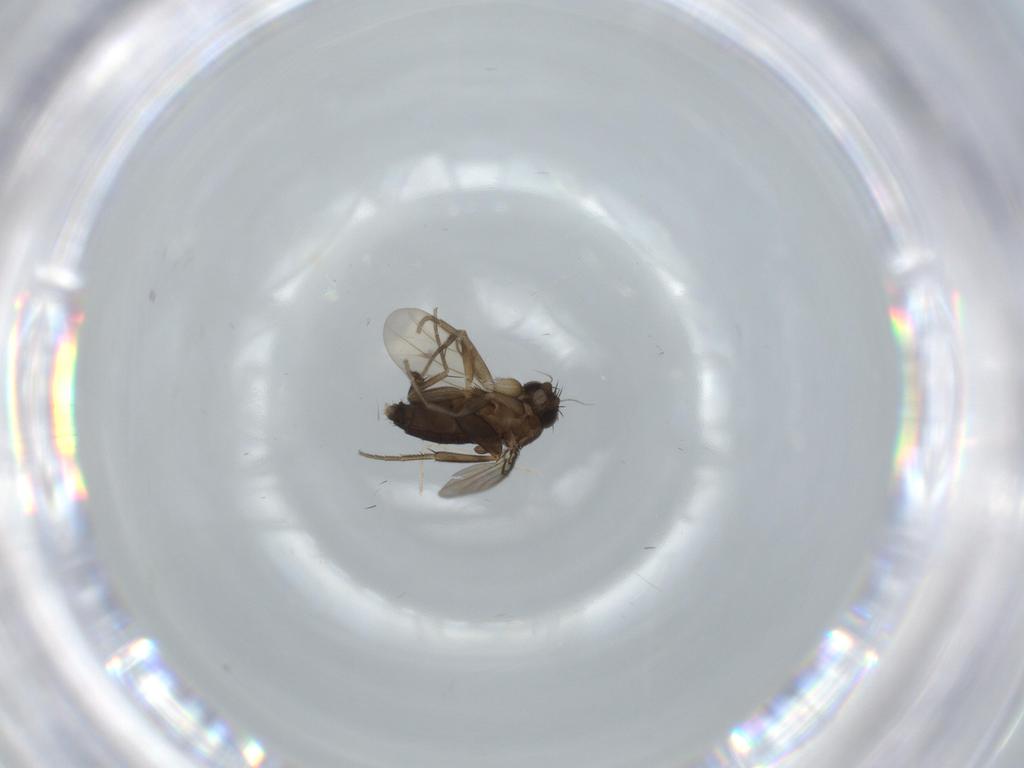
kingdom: Animalia
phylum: Arthropoda
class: Insecta
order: Diptera
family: Phoridae
